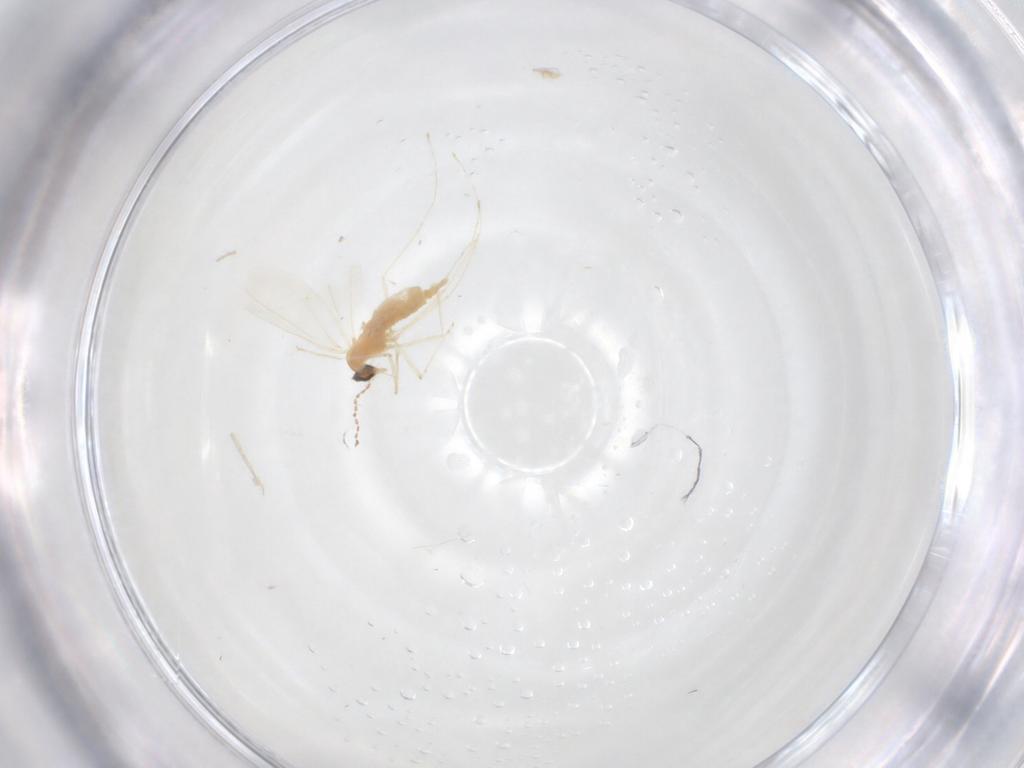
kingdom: Animalia
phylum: Arthropoda
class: Insecta
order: Diptera
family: Cecidomyiidae
